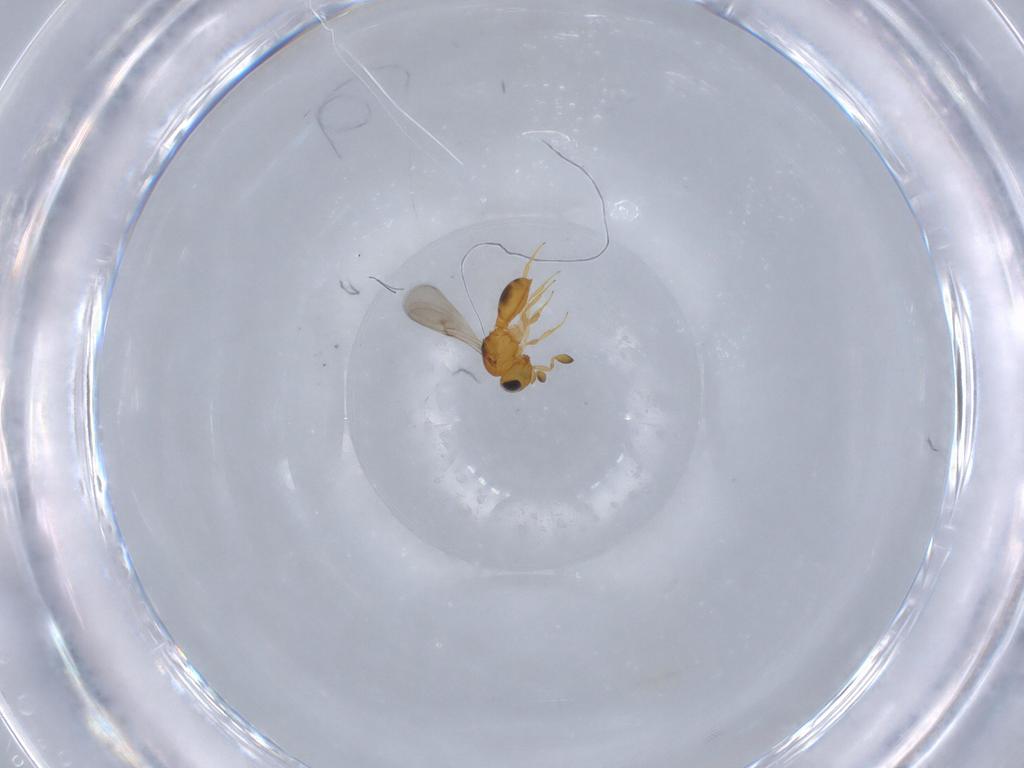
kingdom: Animalia
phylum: Arthropoda
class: Insecta
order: Hymenoptera
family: Scelionidae
